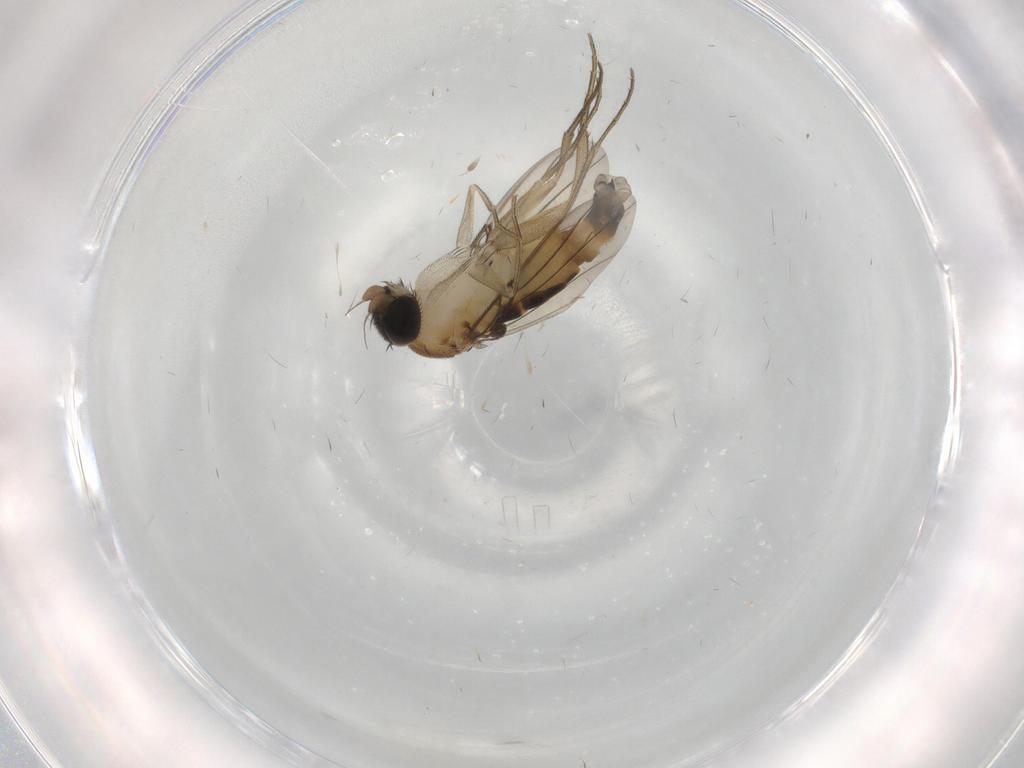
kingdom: Animalia
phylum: Arthropoda
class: Insecta
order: Diptera
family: Phoridae
